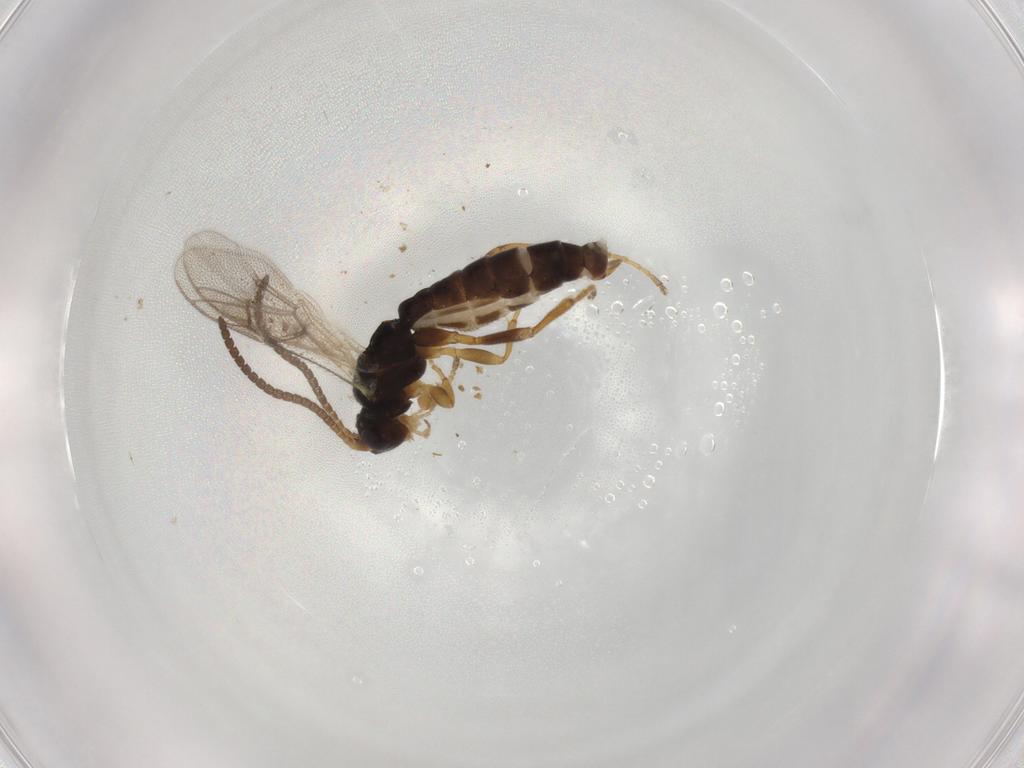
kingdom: Animalia
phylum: Arthropoda
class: Insecta
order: Hymenoptera
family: Ichneumonidae
